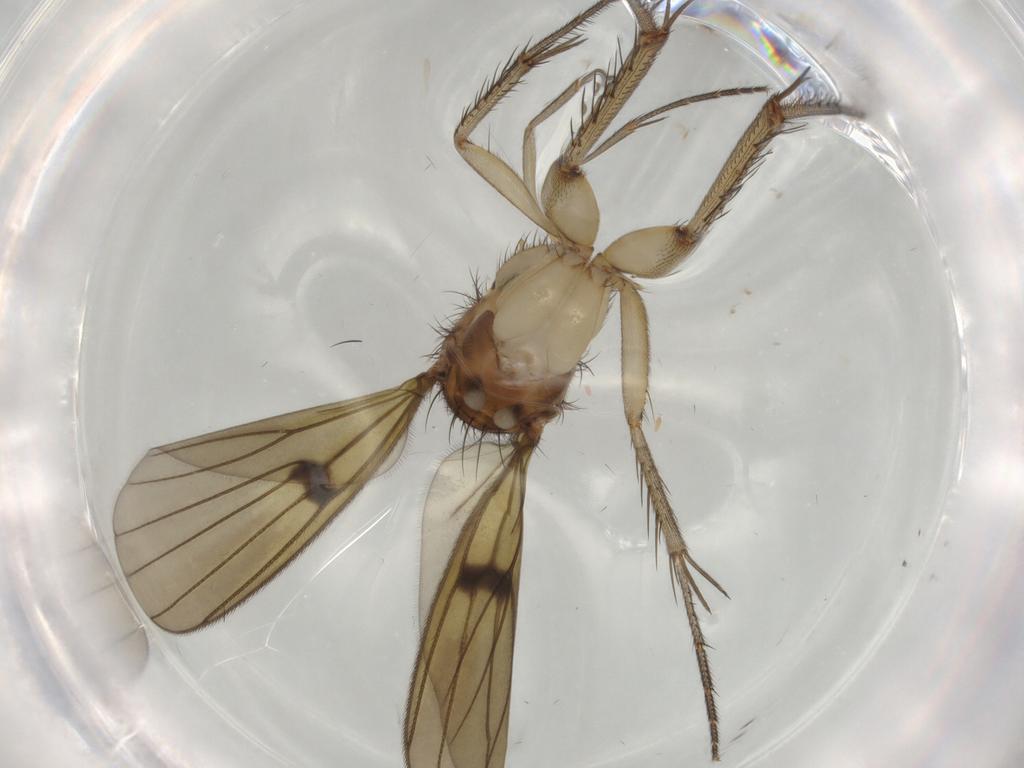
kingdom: Animalia
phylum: Arthropoda
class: Insecta
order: Diptera
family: Mycetophilidae
